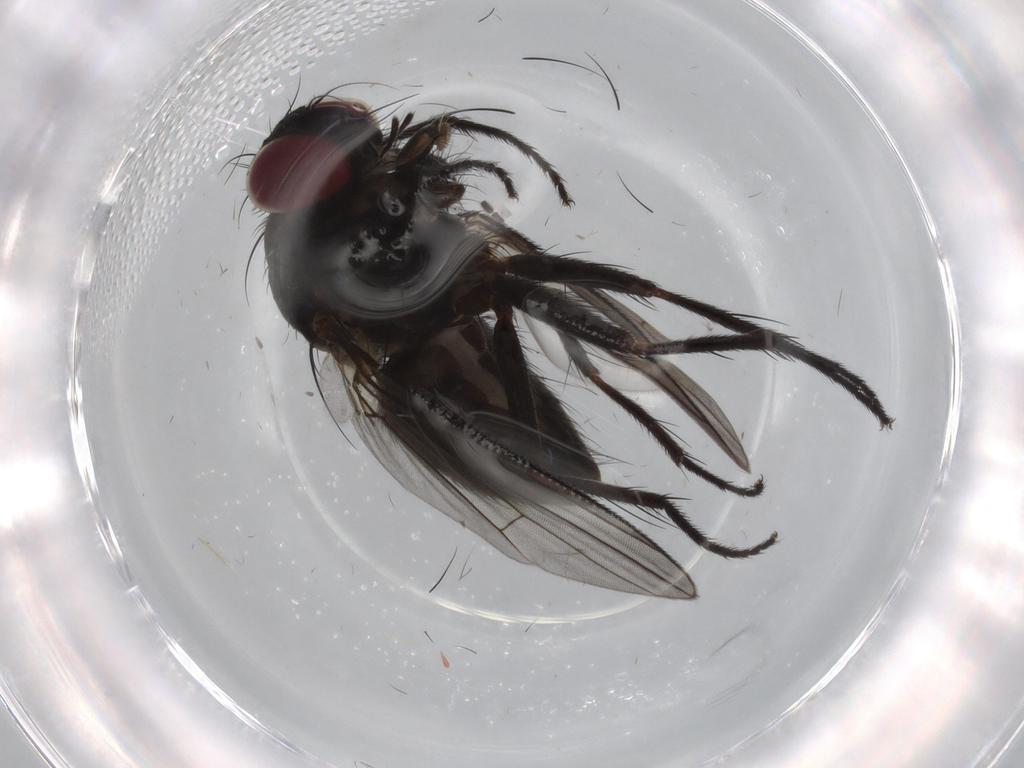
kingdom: Animalia
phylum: Arthropoda
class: Insecta
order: Diptera
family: Muscidae
